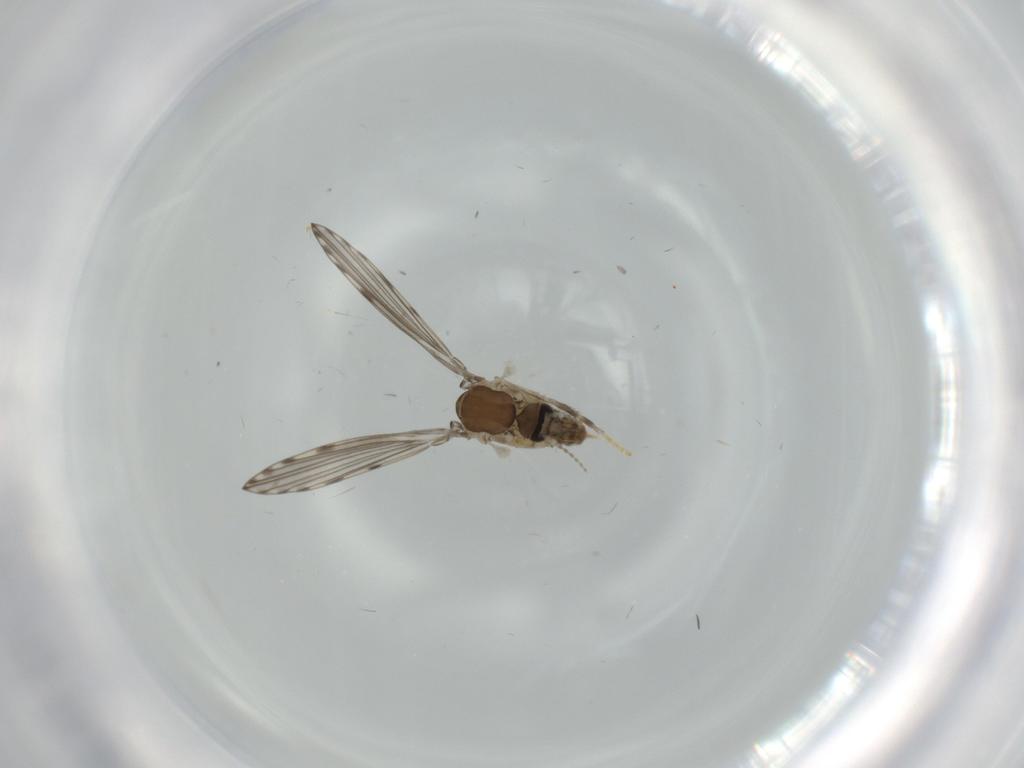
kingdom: Animalia
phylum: Arthropoda
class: Insecta
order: Diptera
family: Psychodidae
